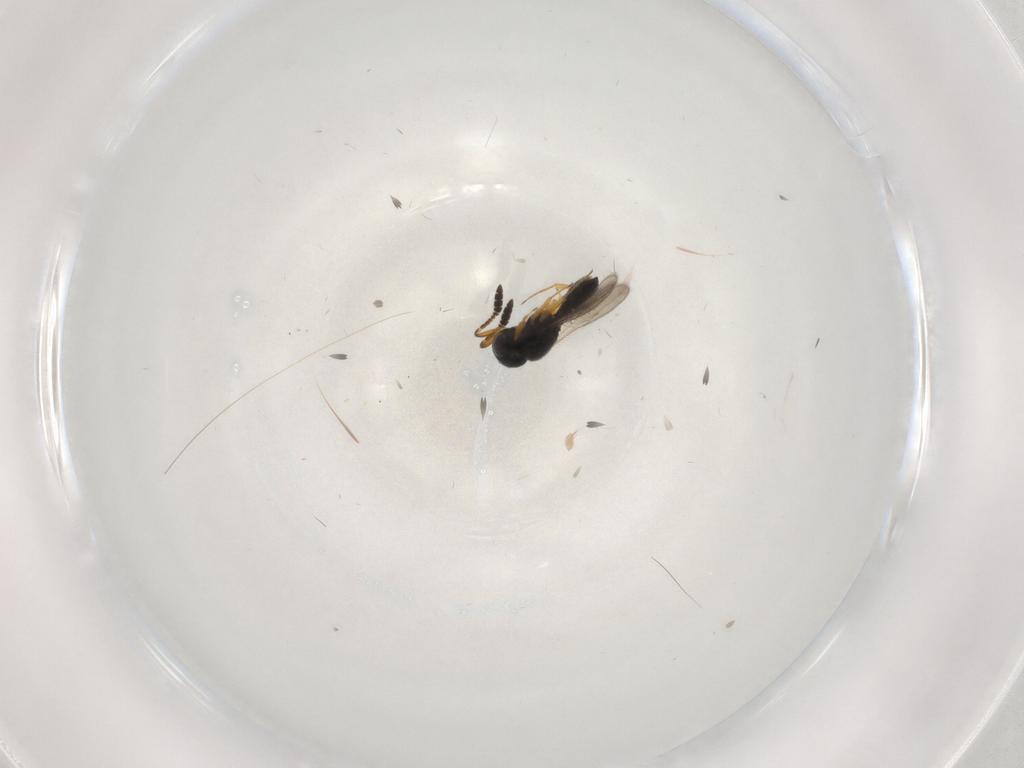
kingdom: Animalia
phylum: Arthropoda
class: Insecta
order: Hymenoptera
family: Scelionidae
